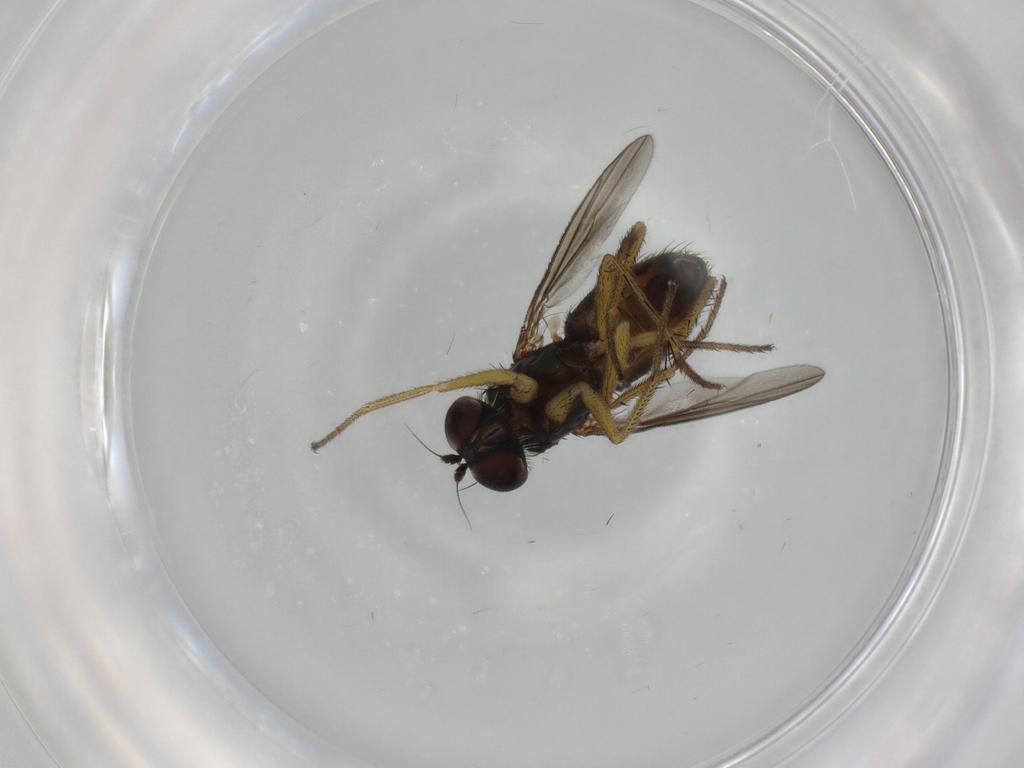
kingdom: Animalia
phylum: Arthropoda
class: Insecta
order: Diptera
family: Dolichopodidae
